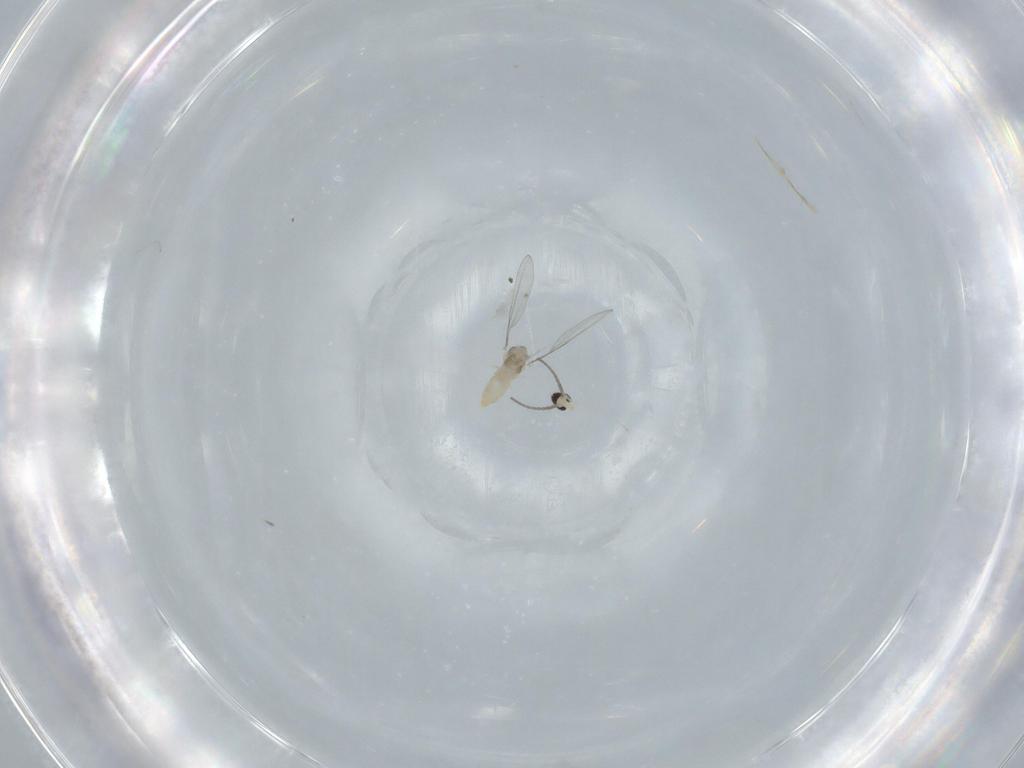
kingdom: Animalia
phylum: Arthropoda
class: Insecta
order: Diptera
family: Cecidomyiidae
